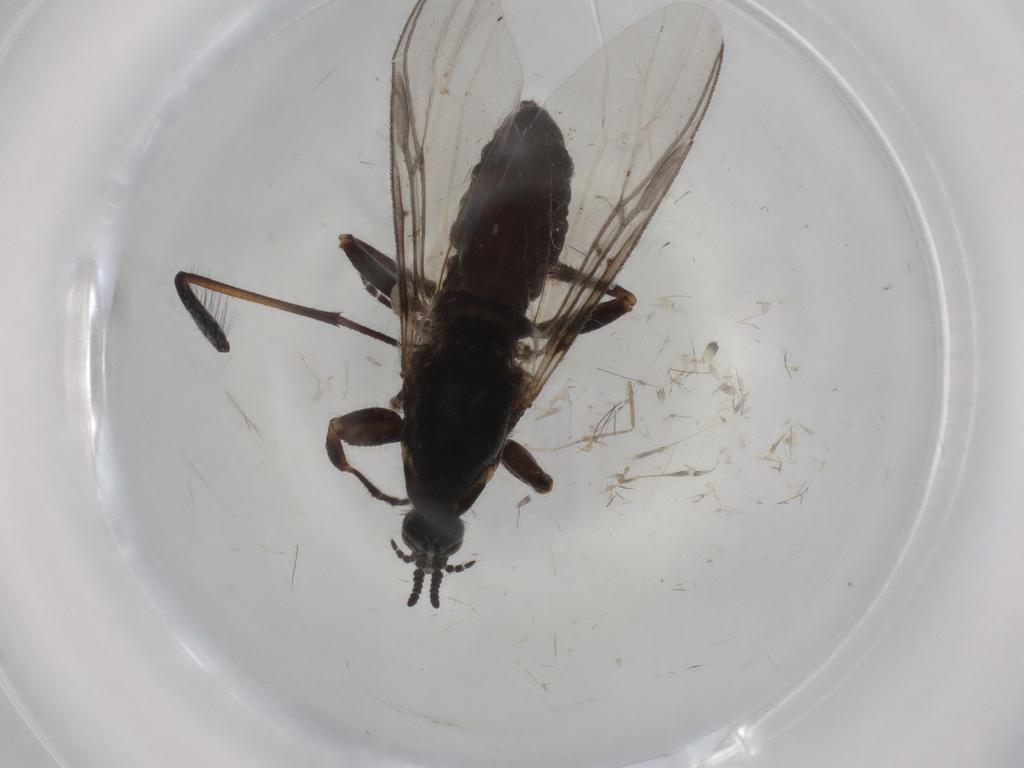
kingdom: Animalia
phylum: Arthropoda
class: Insecta
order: Diptera
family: Bibionidae
